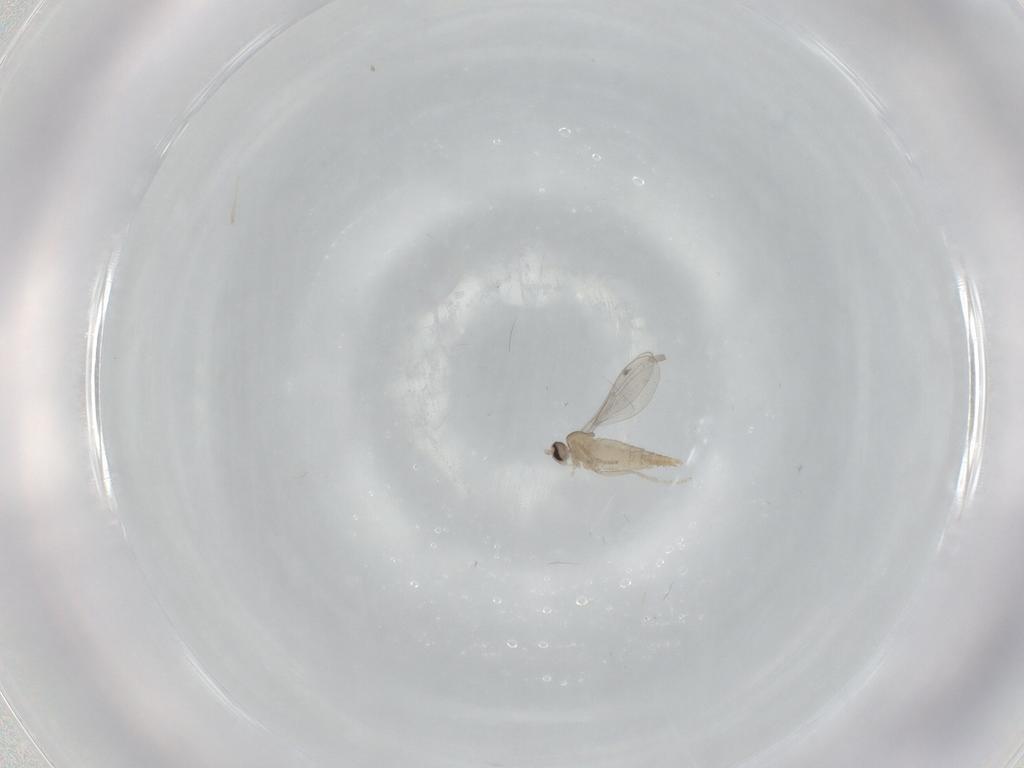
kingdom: Animalia
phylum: Arthropoda
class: Insecta
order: Diptera
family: Cecidomyiidae
